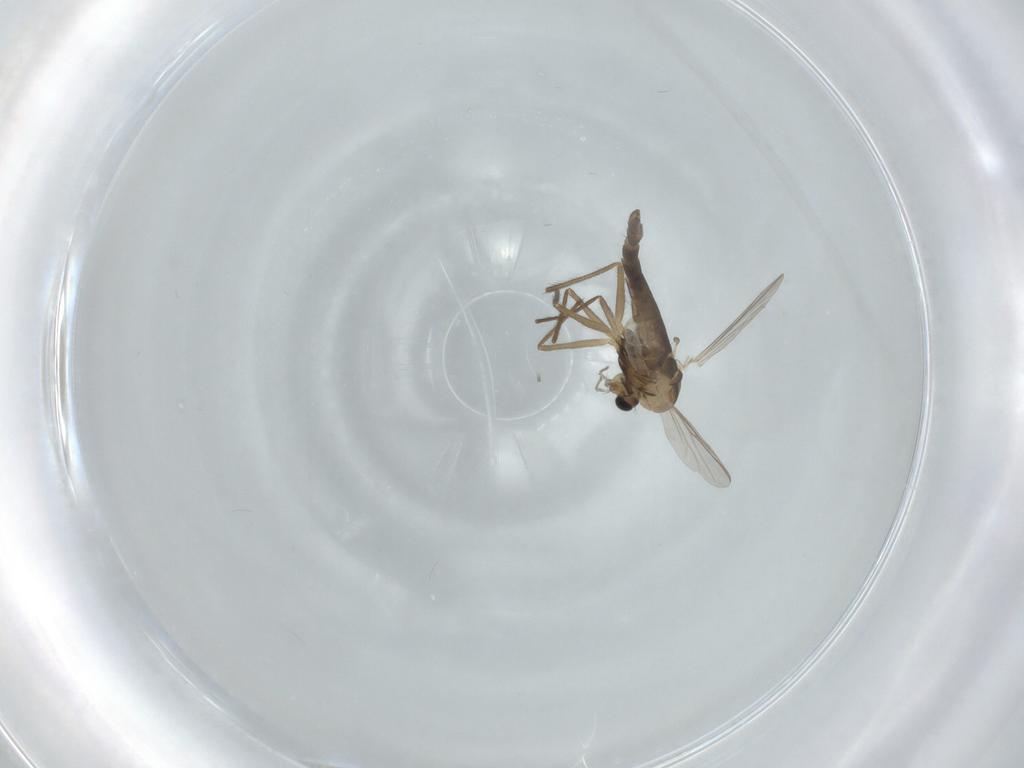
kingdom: Animalia
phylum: Arthropoda
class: Insecta
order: Diptera
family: Chironomidae
